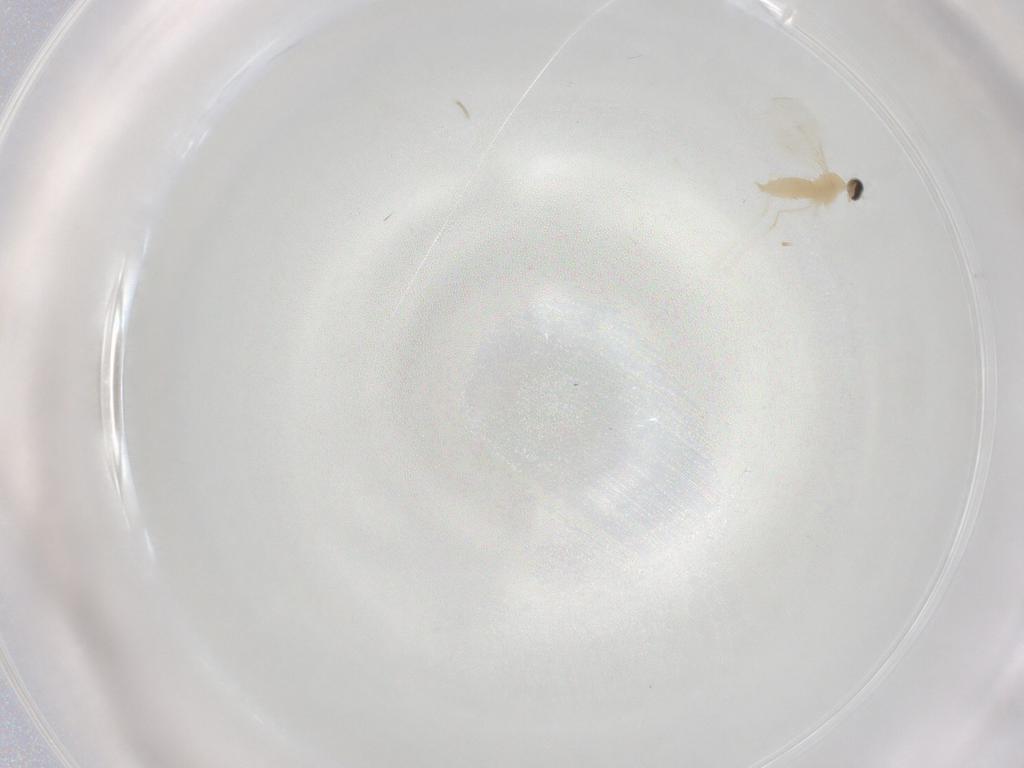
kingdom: Animalia
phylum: Arthropoda
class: Insecta
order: Diptera
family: Cecidomyiidae
